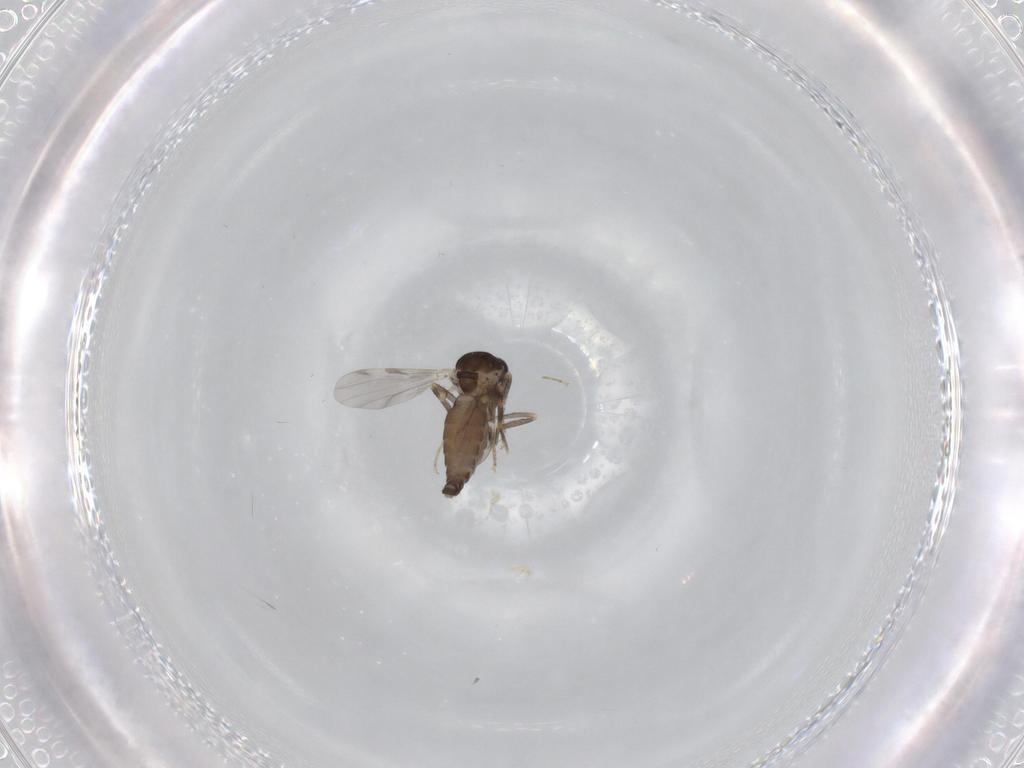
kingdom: Animalia
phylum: Arthropoda
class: Insecta
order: Diptera
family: Ceratopogonidae
